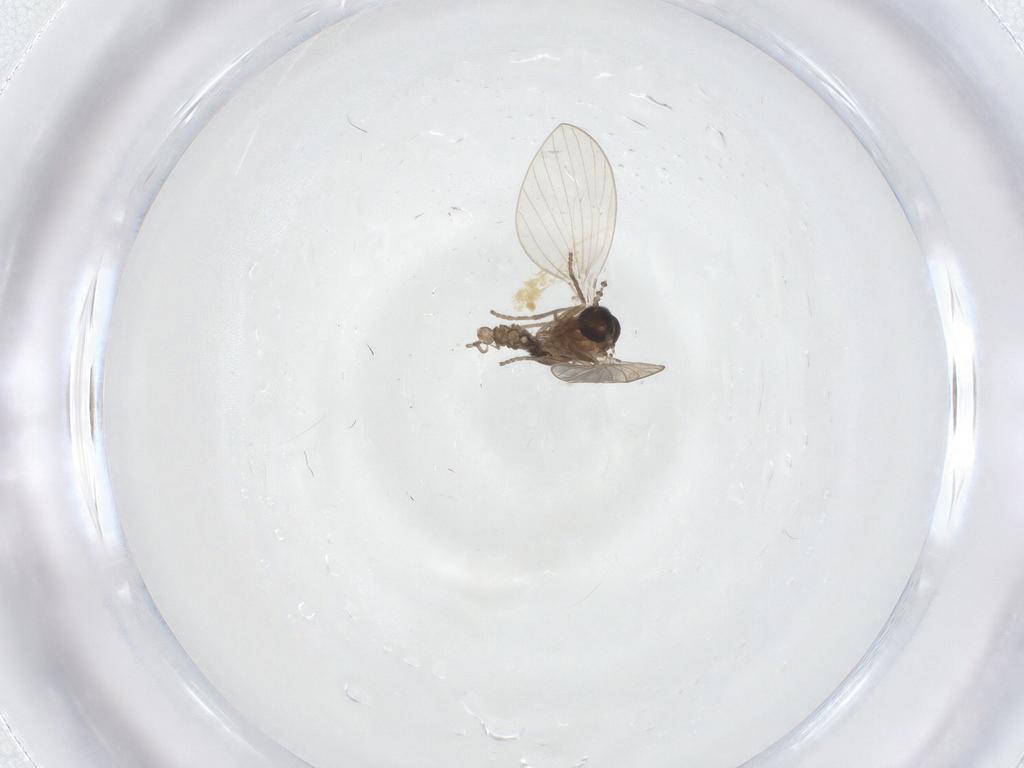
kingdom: Animalia
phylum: Arthropoda
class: Insecta
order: Diptera
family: Psychodidae
